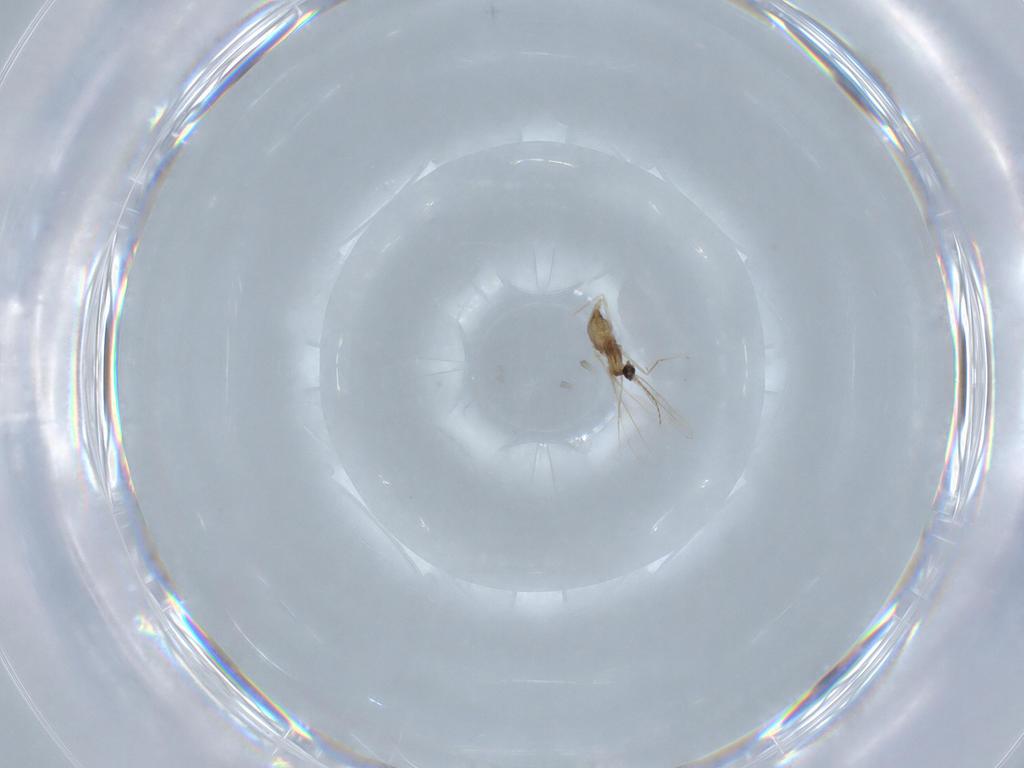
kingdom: Animalia
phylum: Arthropoda
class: Insecta
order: Diptera
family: Cecidomyiidae
